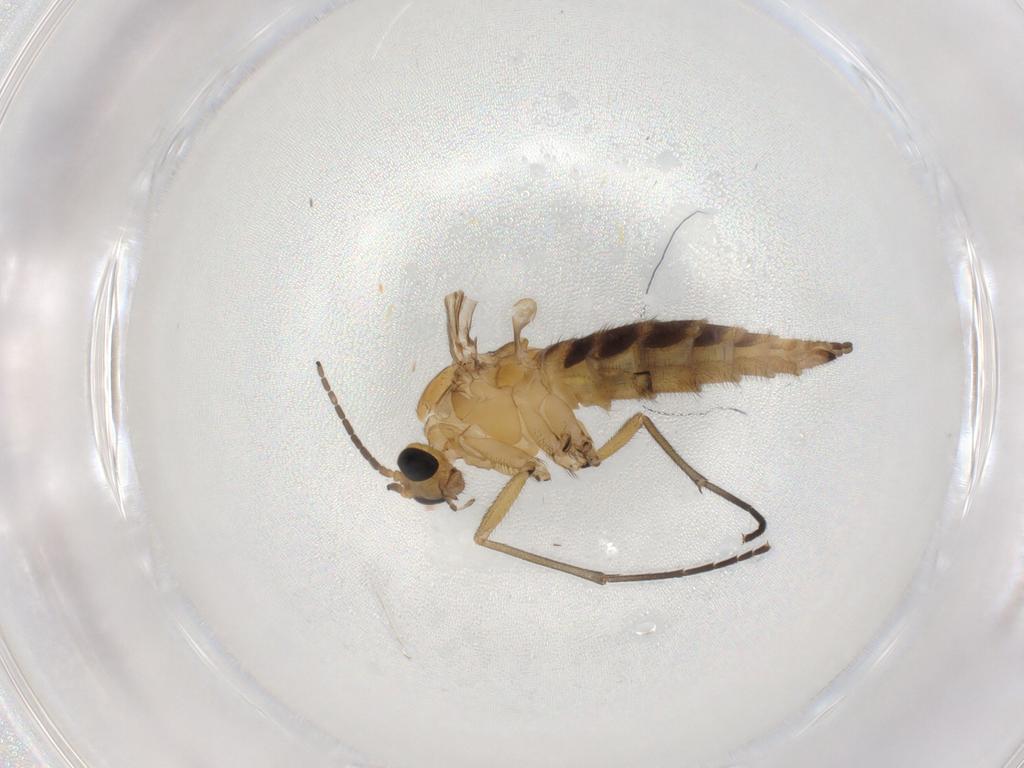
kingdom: Animalia
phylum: Arthropoda
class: Insecta
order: Diptera
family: Sciaridae
